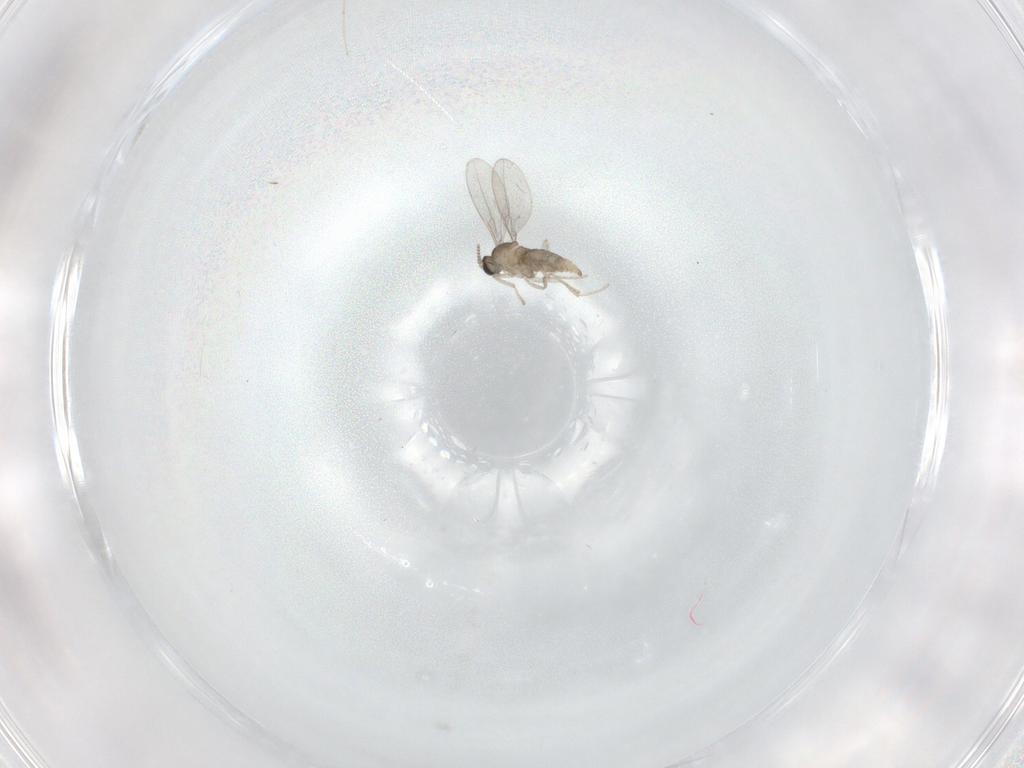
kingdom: Animalia
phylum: Arthropoda
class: Insecta
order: Diptera
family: Cecidomyiidae
